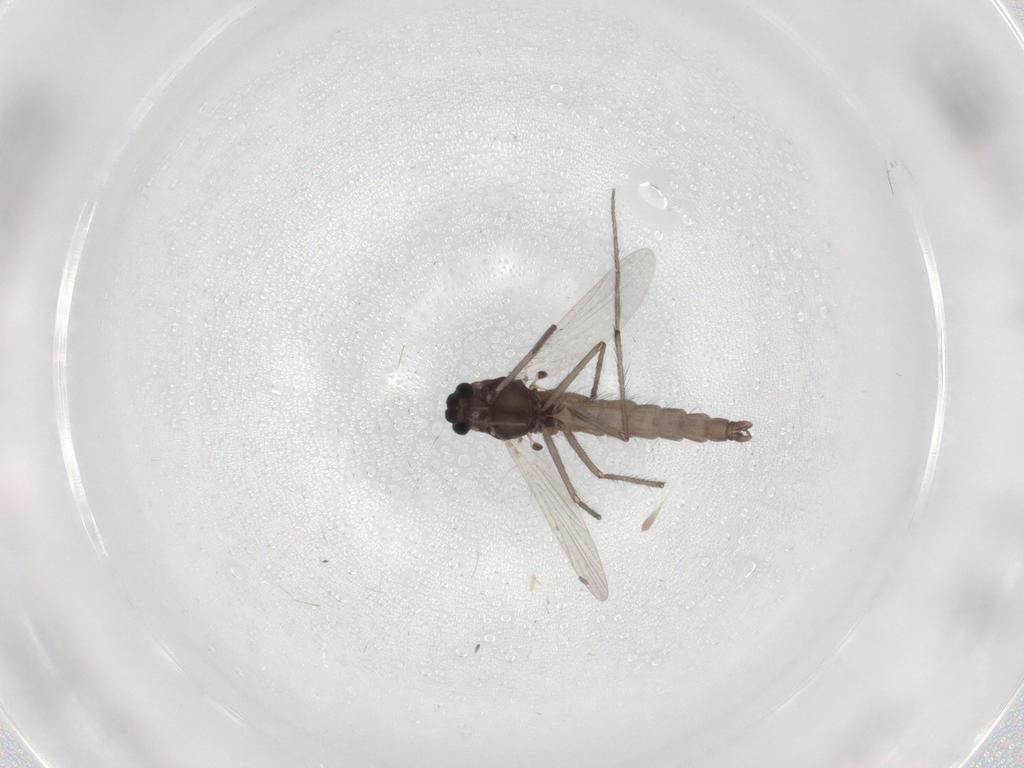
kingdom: Animalia
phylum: Arthropoda
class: Insecta
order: Diptera
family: Chironomidae
